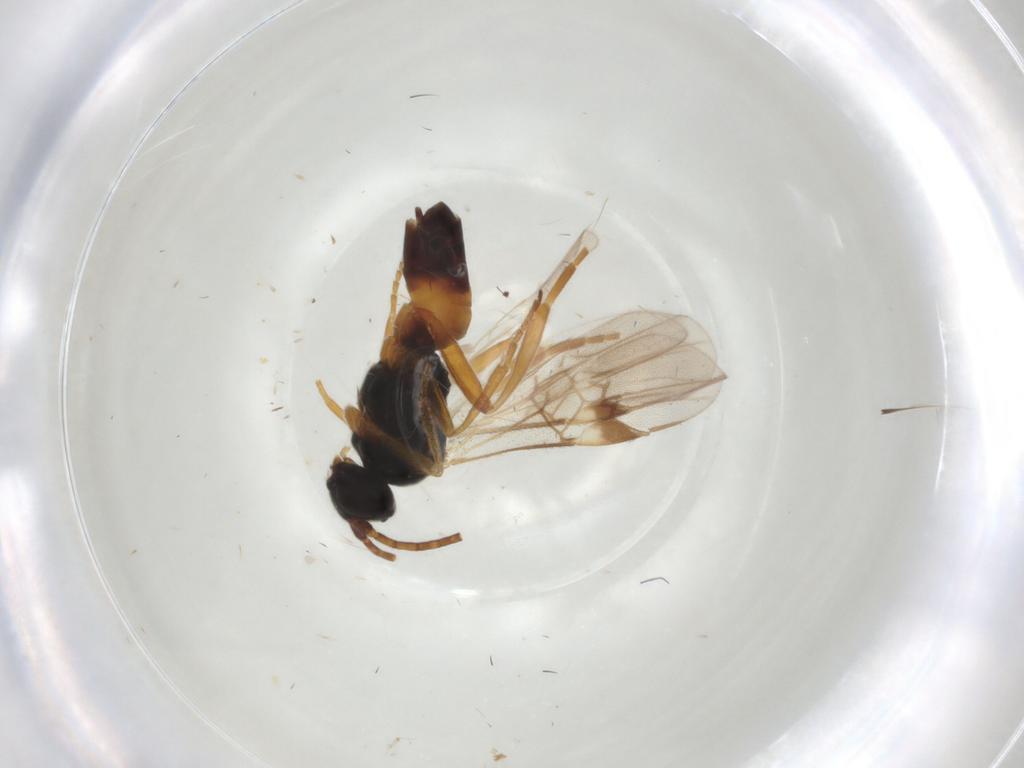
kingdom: Animalia
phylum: Arthropoda
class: Insecta
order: Hymenoptera
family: Braconidae
